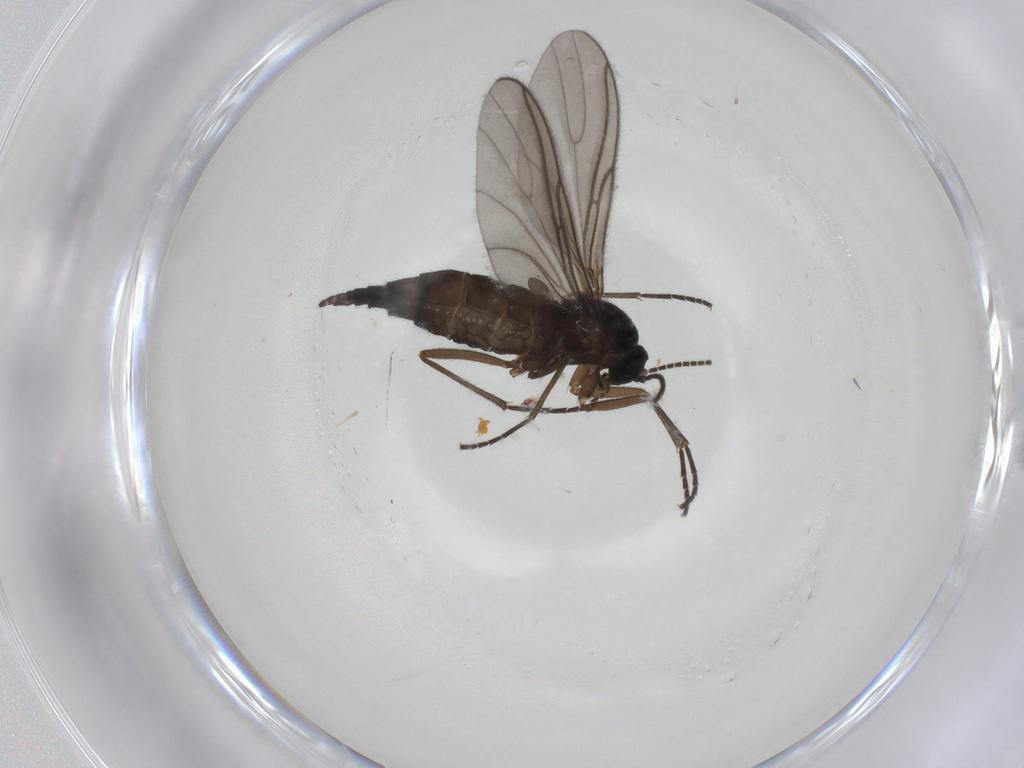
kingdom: Animalia
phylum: Arthropoda
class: Insecta
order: Diptera
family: Sciaridae
